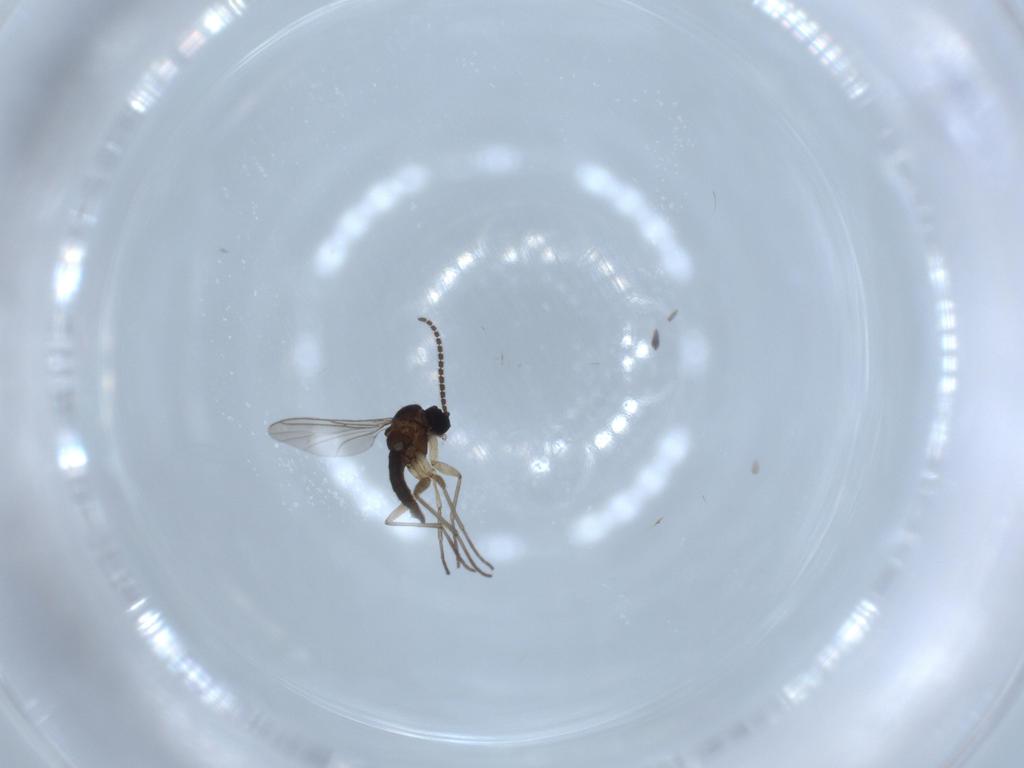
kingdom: Animalia
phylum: Arthropoda
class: Insecta
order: Diptera
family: Sciaridae
